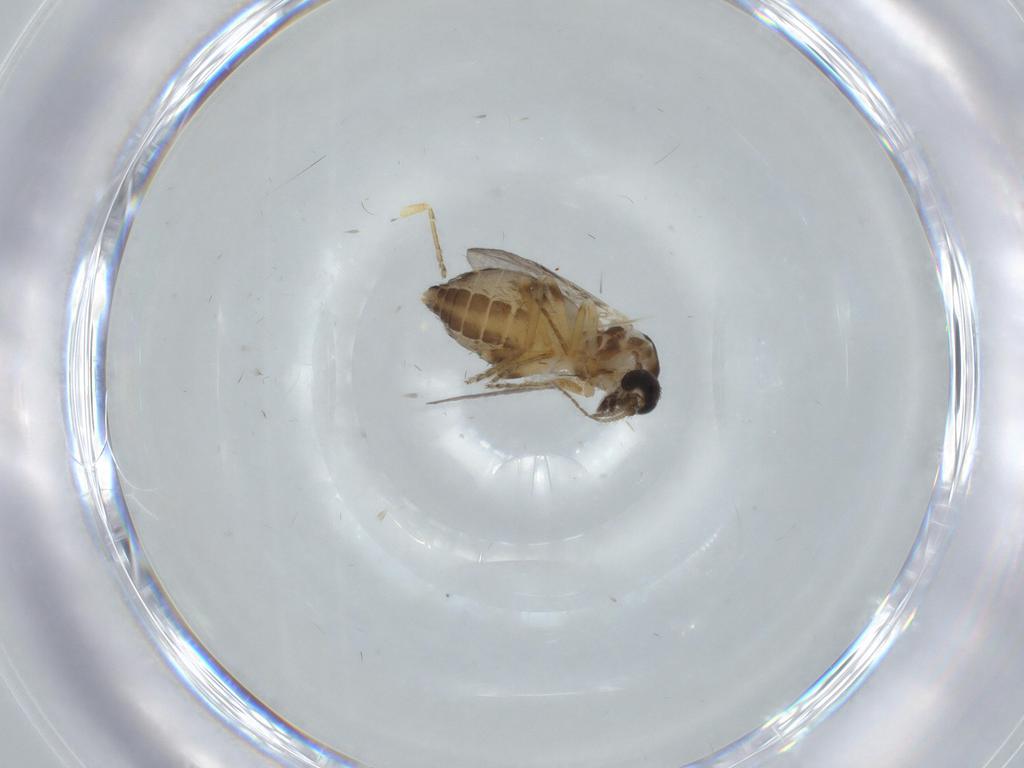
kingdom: Animalia
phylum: Arthropoda
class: Insecta
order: Diptera
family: Ceratopogonidae
